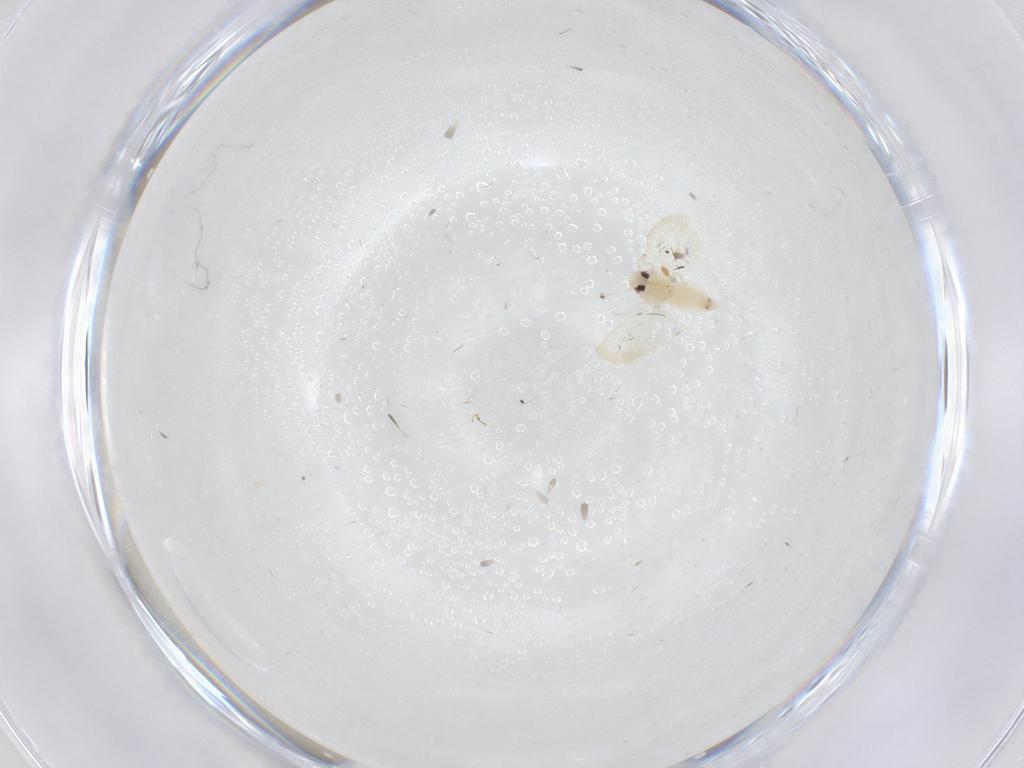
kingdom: Animalia
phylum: Arthropoda
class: Insecta
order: Hemiptera
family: Aleyrodidae
